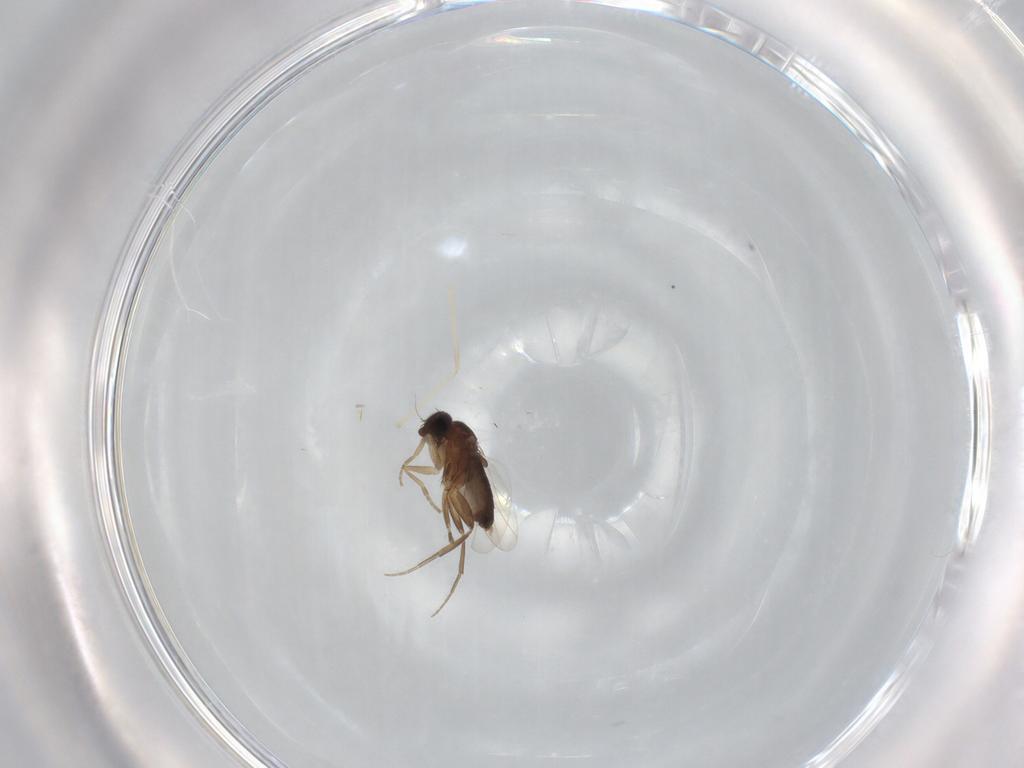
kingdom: Animalia
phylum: Arthropoda
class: Insecta
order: Diptera
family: Phoridae
